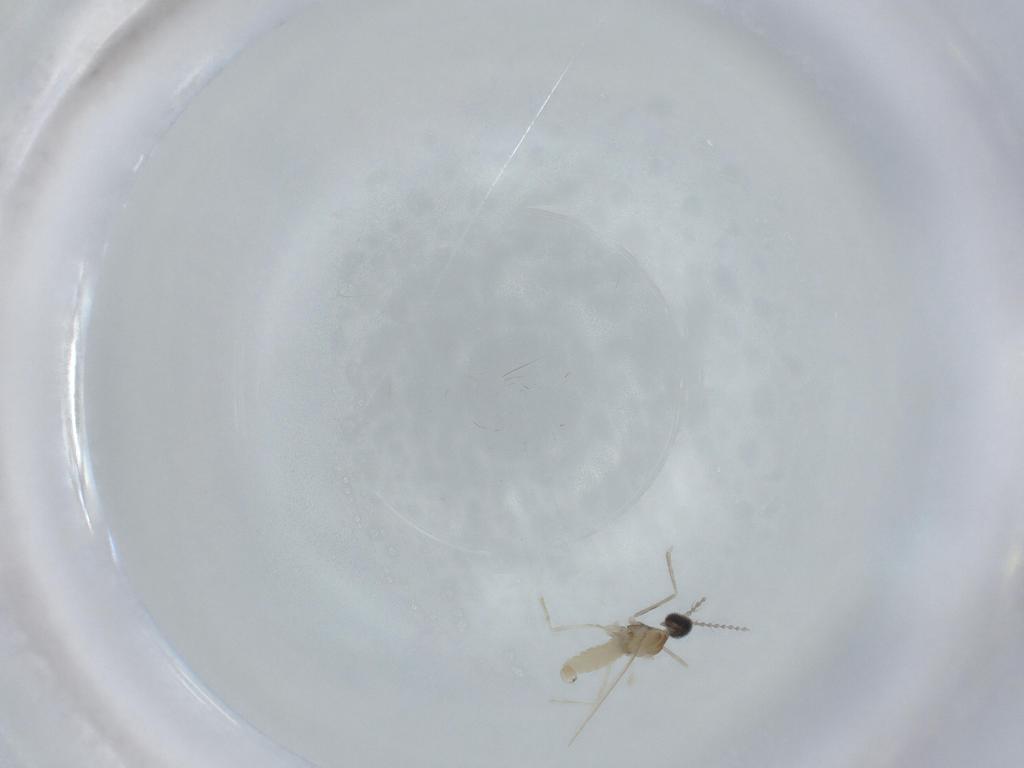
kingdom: Animalia
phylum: Arthropoda
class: Insecta
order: Diptera
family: Cecidomyiidae
